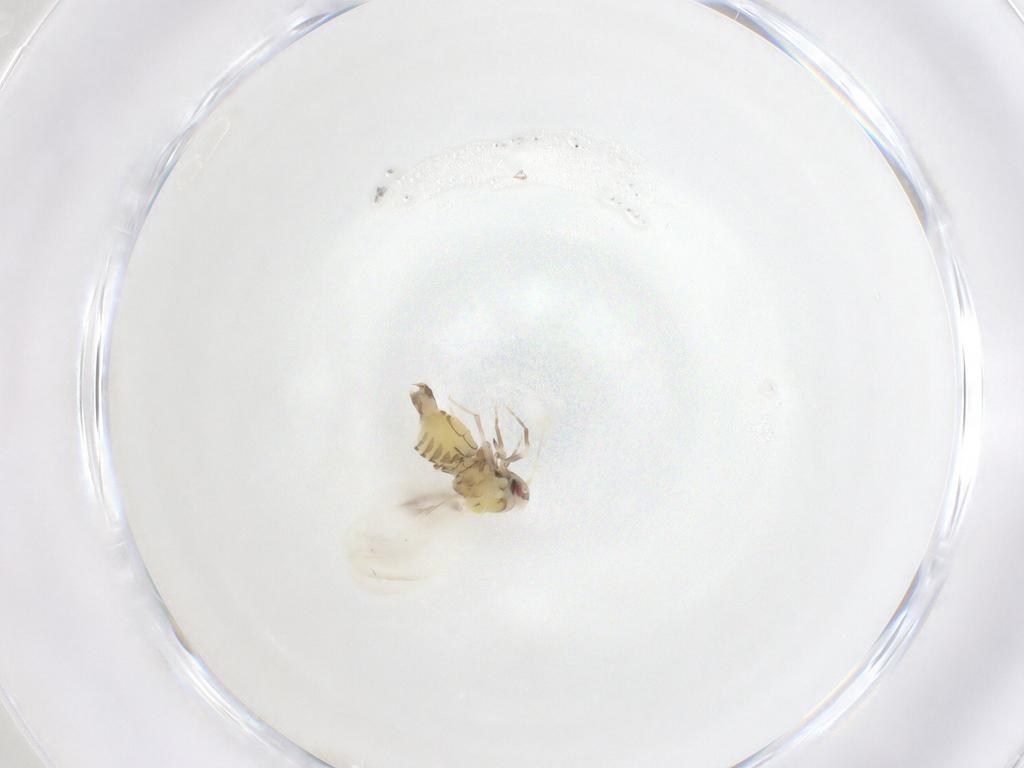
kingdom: Animalia
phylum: Arthropoda
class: Insecta
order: Hemiptera
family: Aleyrodidae
